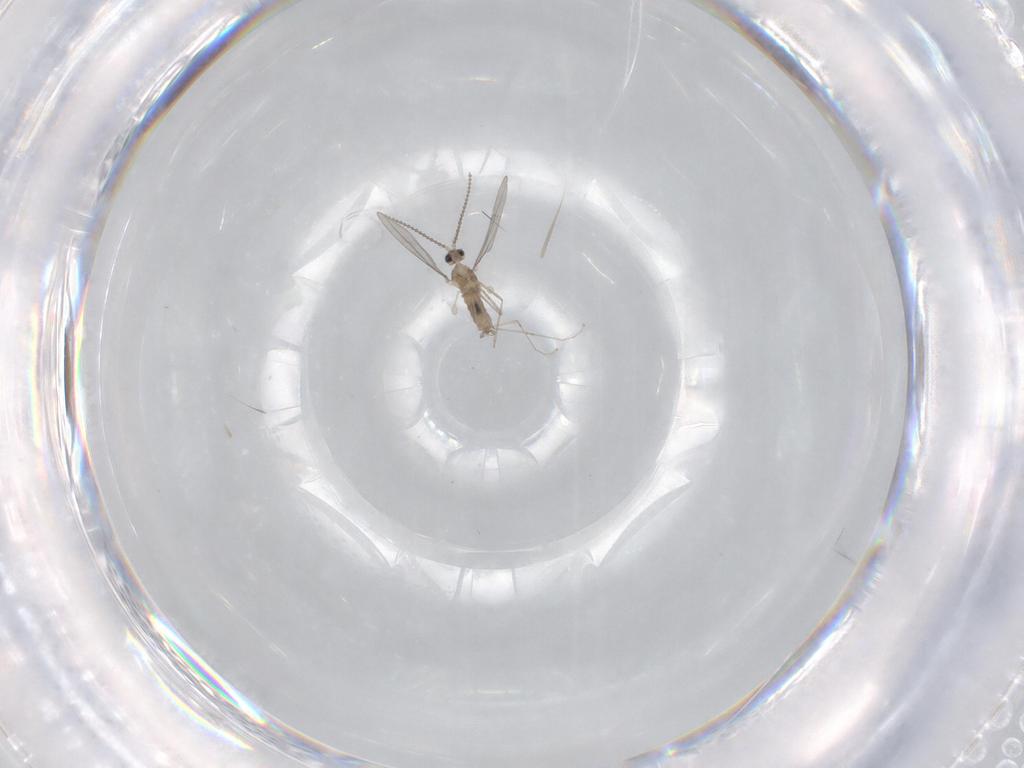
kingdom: Animalia
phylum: Arthropoda
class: Insecta
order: Diptera
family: Cecidomyiidae
